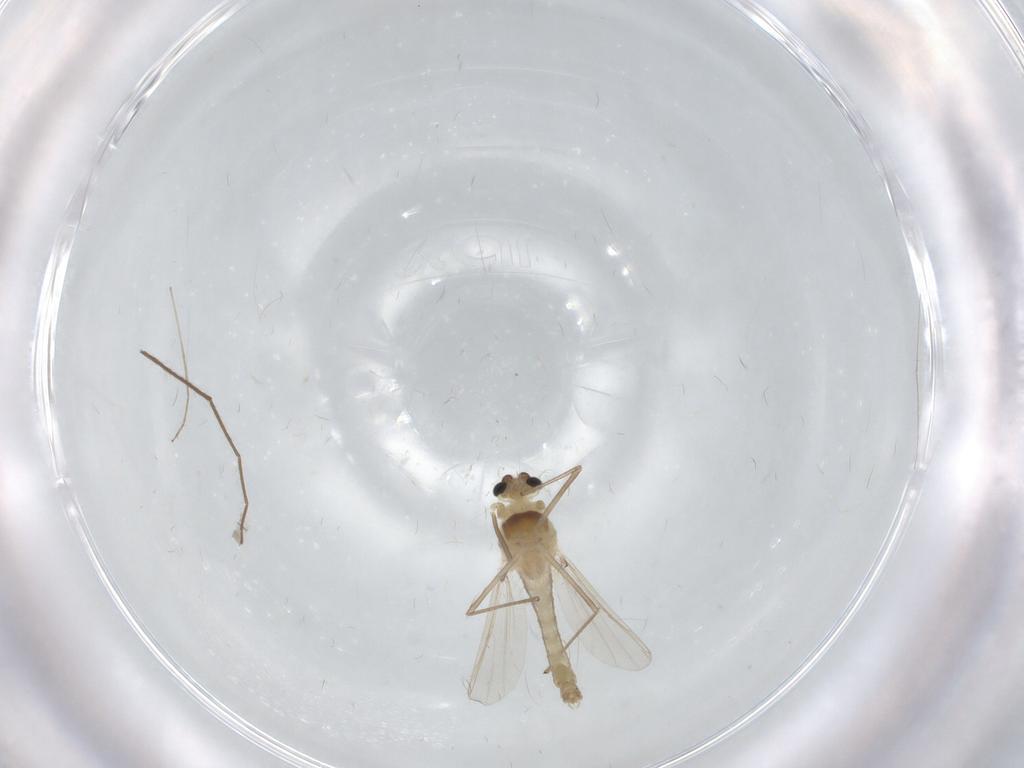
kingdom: Animalia
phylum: Arthropoda
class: Insecta
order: Diptera
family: Chironomidae
